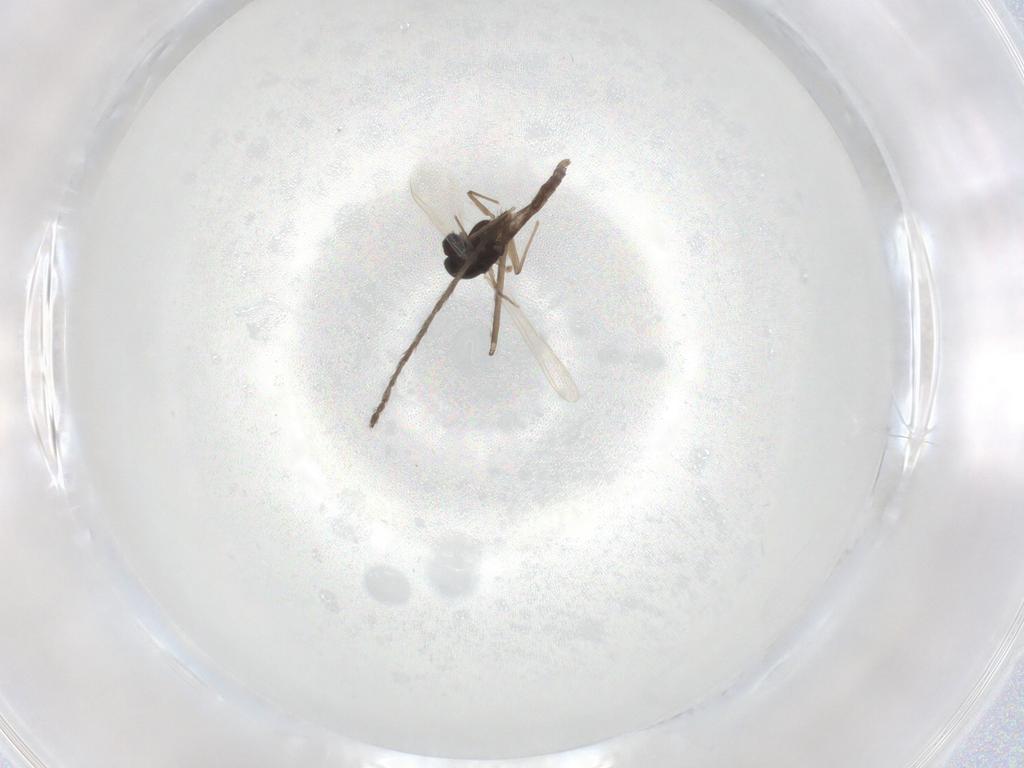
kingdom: Animalia
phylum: Arthropoda
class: Insecta
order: Diptera
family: Chironomidae
